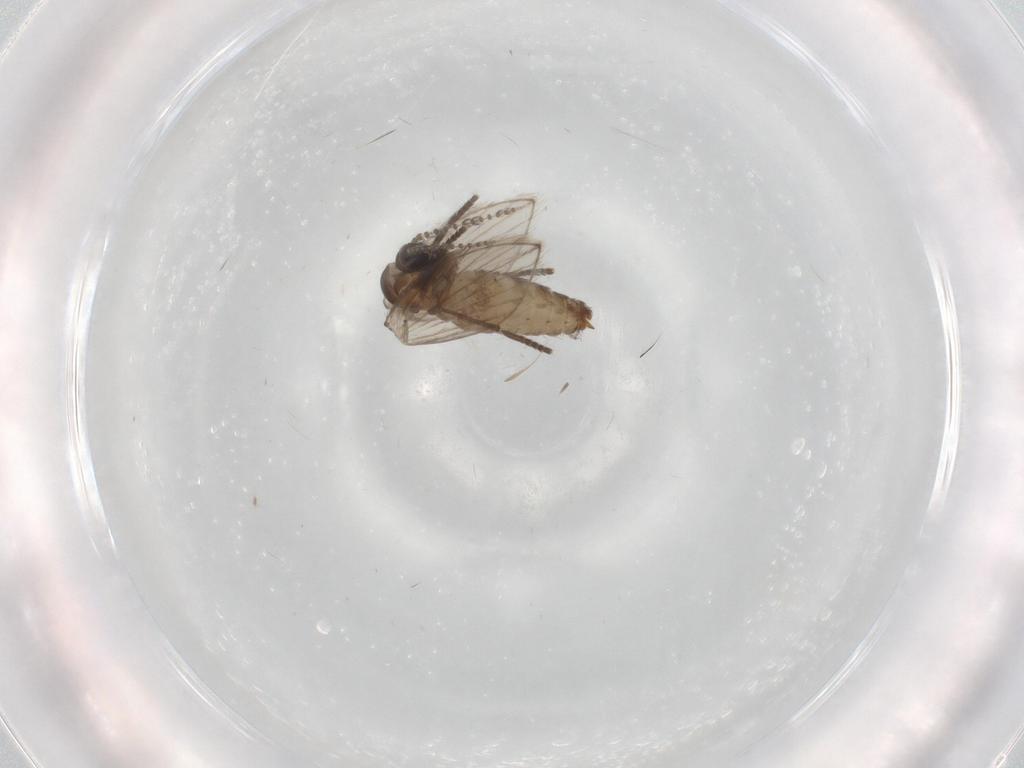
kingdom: Animalia
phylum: Arthropoda
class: Insecta
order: Diptera
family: Psychodidae
